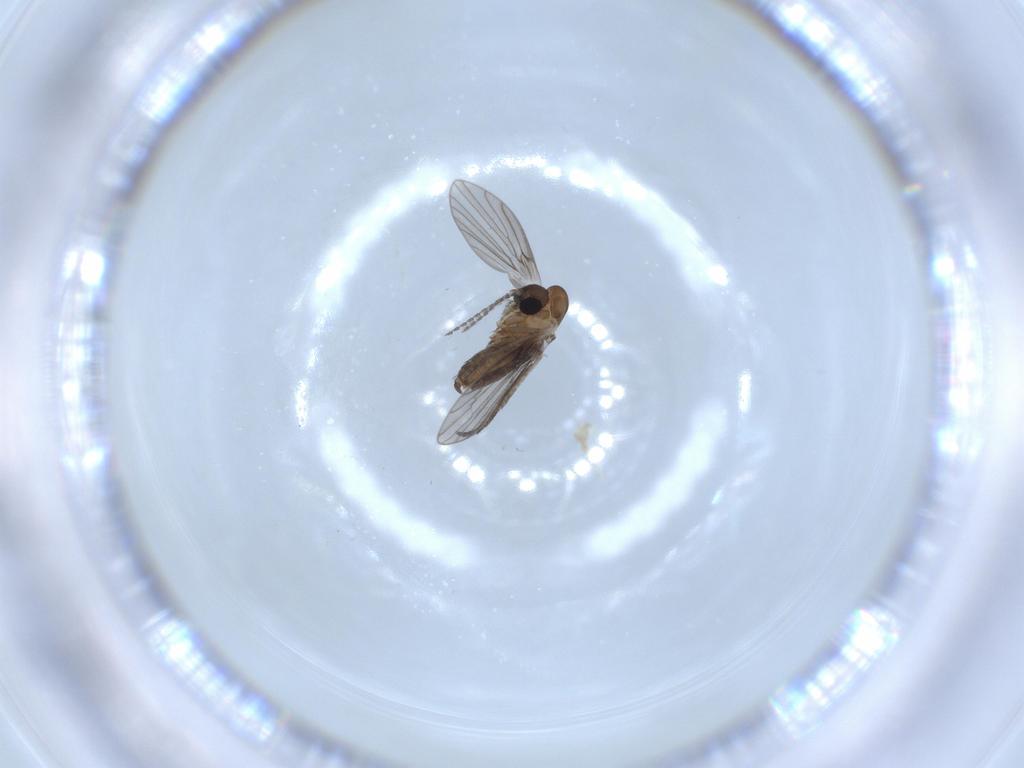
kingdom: Animalia
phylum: Arthropoda
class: Insecta
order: Diptera
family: Psychodidae
